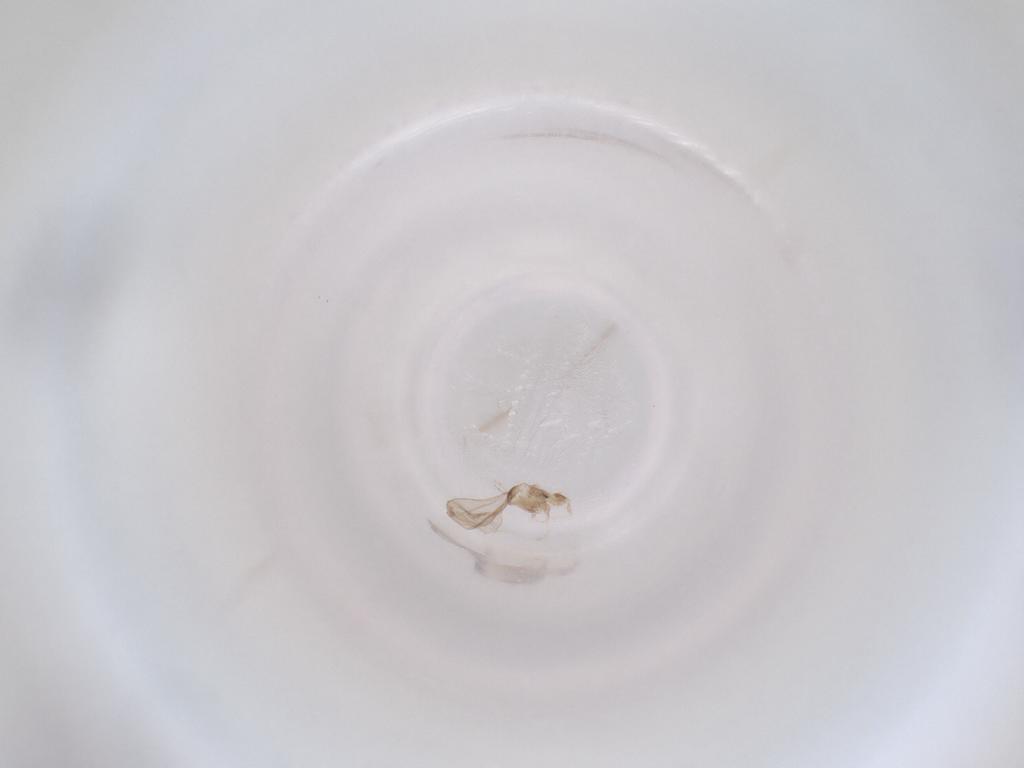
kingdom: Animalia
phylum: Arthropoda
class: Insecta
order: Diptera
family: Cecidomyiidae
